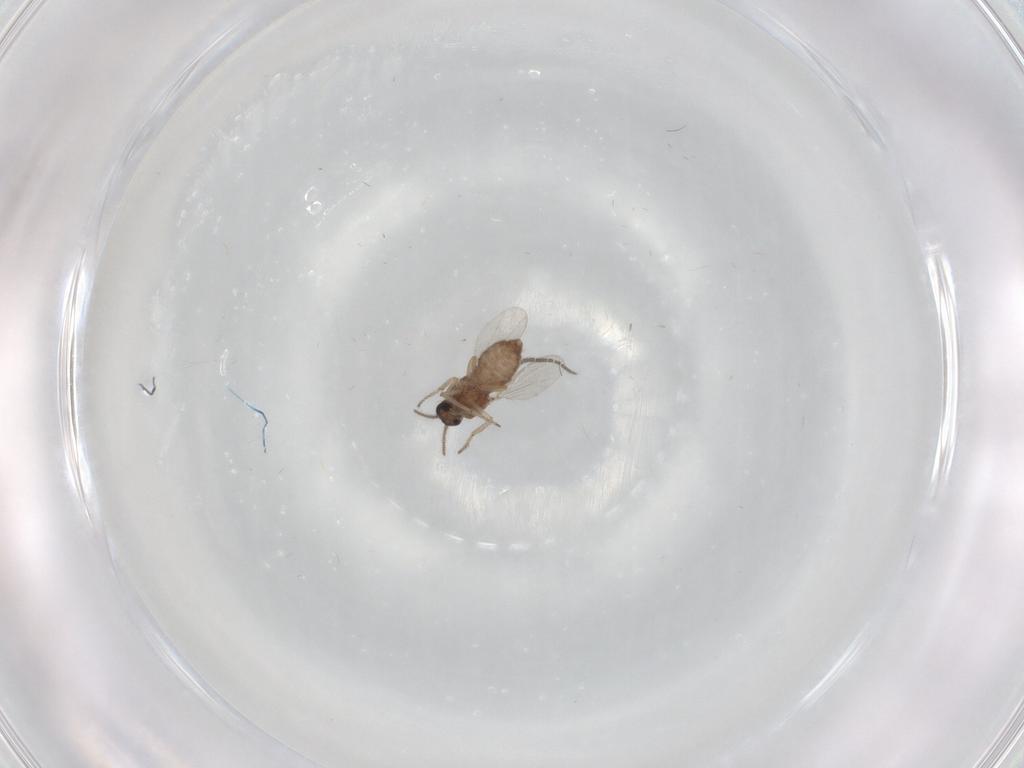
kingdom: Animalia
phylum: Arthropoda
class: Insecta
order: Diptera
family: Ceratopogonidae
